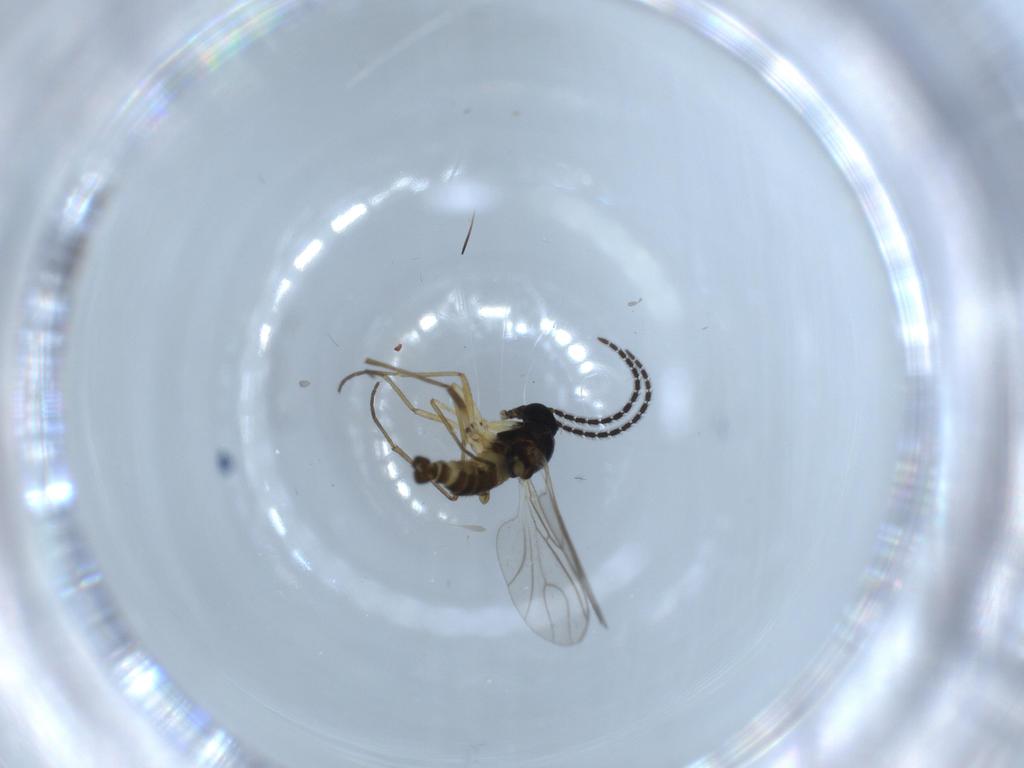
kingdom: Animalia
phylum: Arthropoda
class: Insecta
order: Diptera
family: Sciaridae
